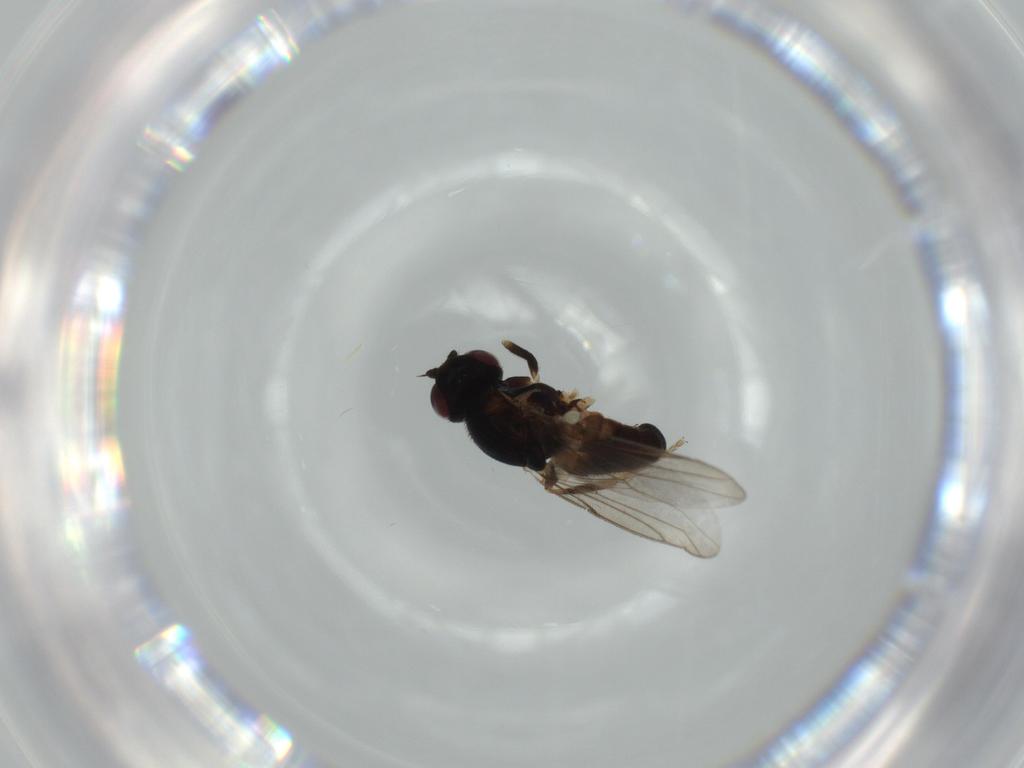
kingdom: Animalia
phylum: Arthropoda
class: Insecta
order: Diptera
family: Chloropidae
